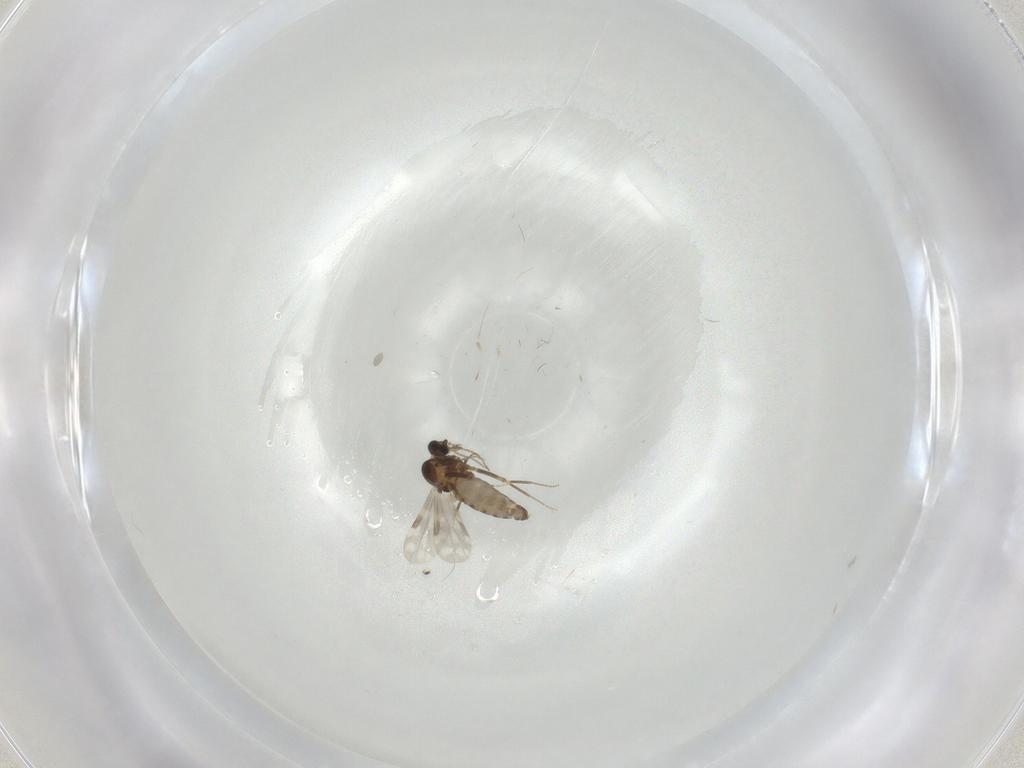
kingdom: Animalia
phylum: Arthropoda
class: Insecta
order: Diptera
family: Ceratopogonidae
